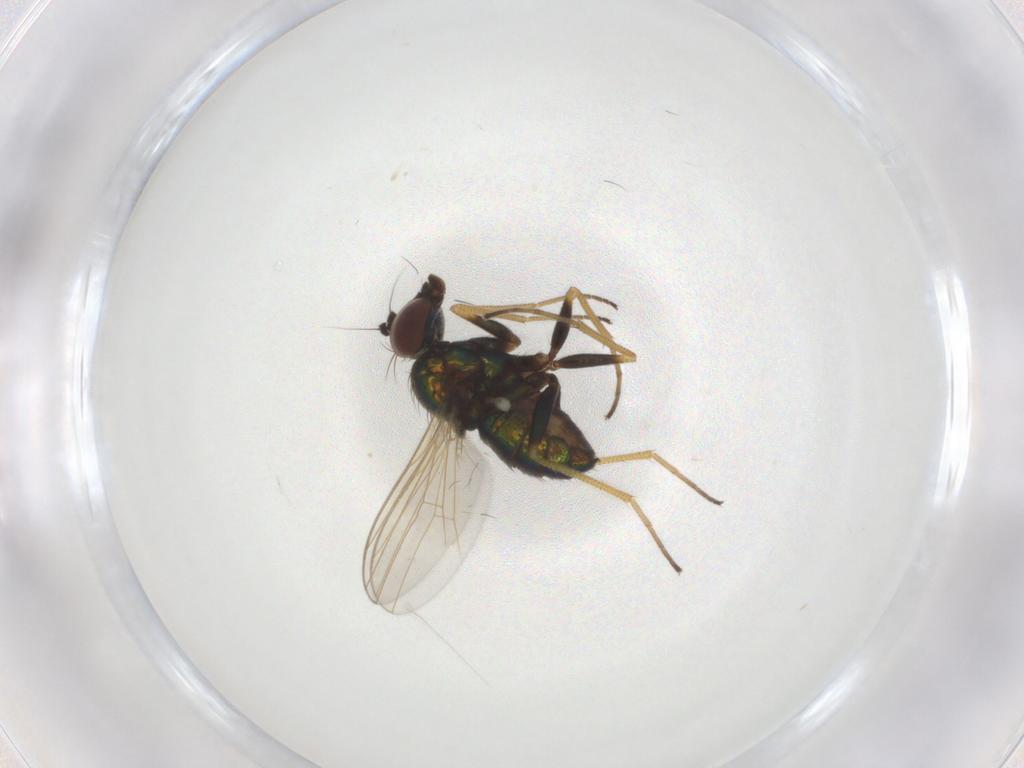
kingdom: Animalia
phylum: Arthropoda
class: Insecta
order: Diptera
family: Dolichopodidae
